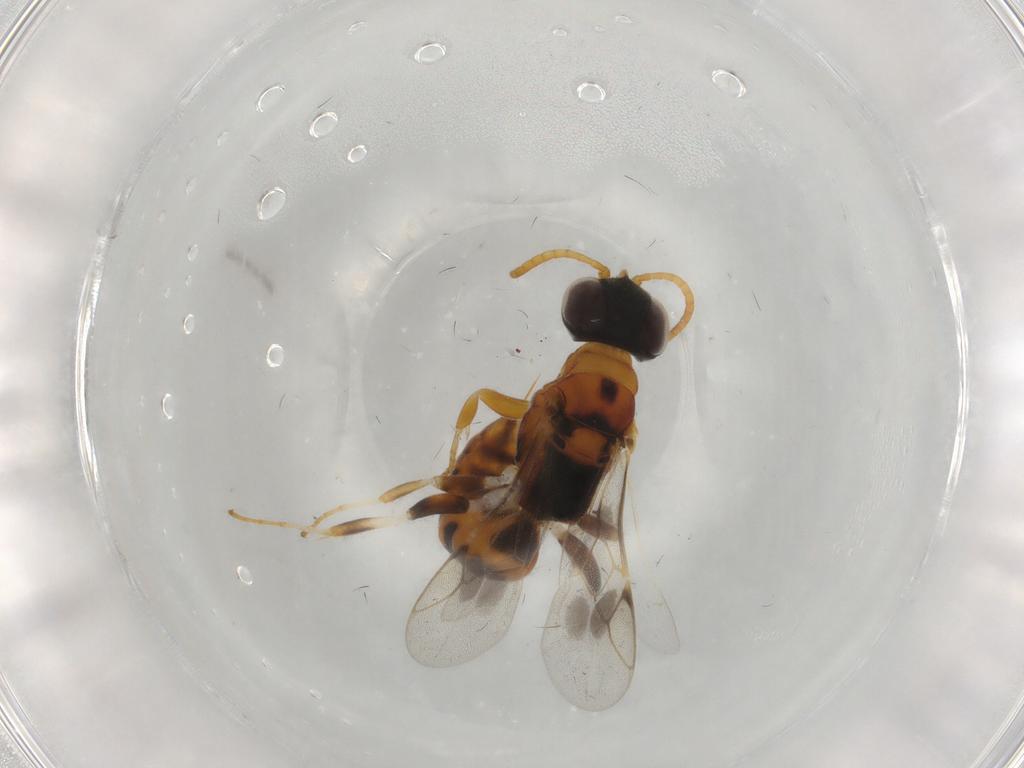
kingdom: Animalia
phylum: Arthropoda
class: Insecta
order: Hymenoptera
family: Crabronidae
